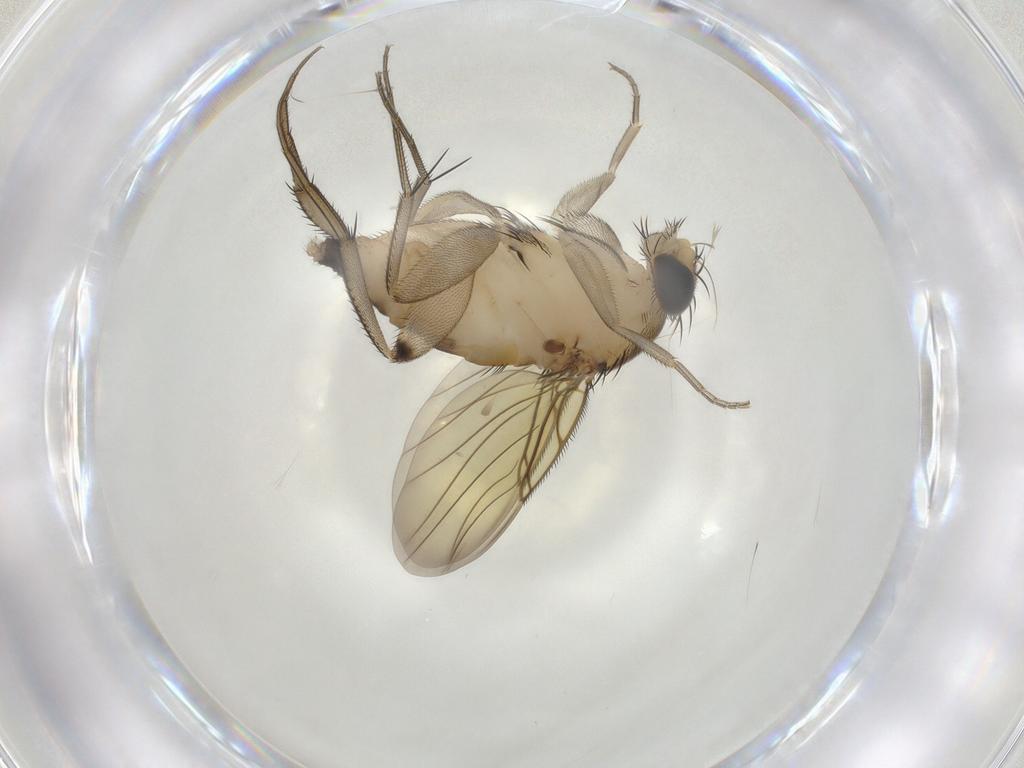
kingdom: Animalia
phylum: Arthropoda
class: Insecta
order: Diptera
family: Phoridae
